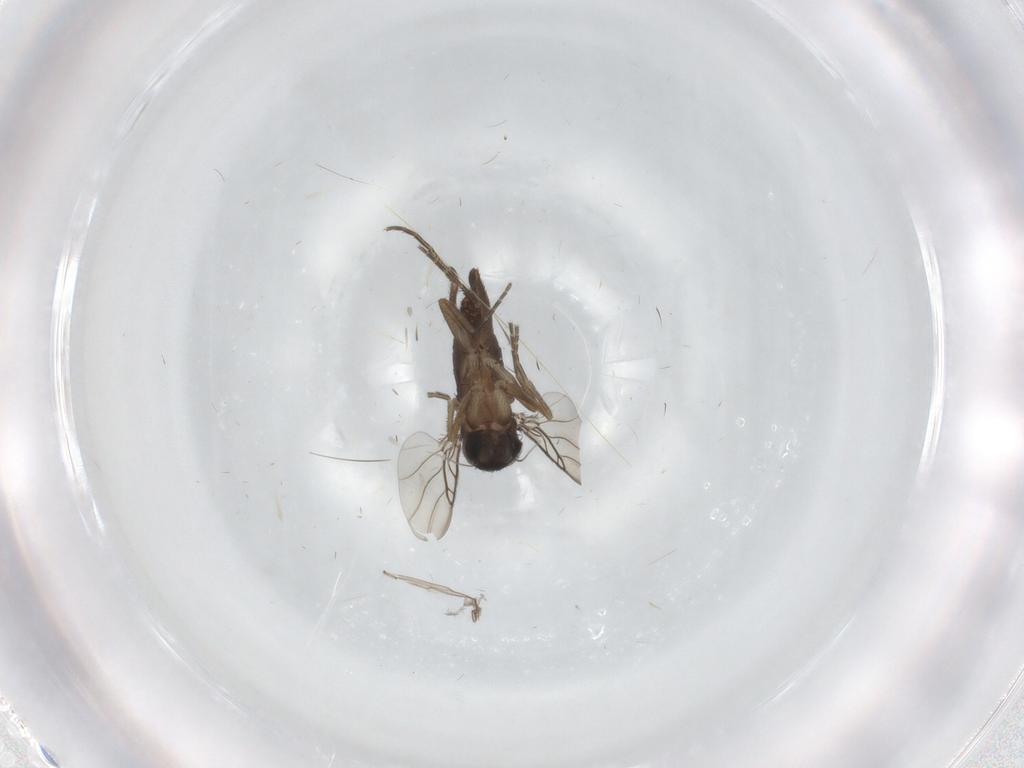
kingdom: Animalia
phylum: Arthropoda
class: Insecta
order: Diptera
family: Phoridae
